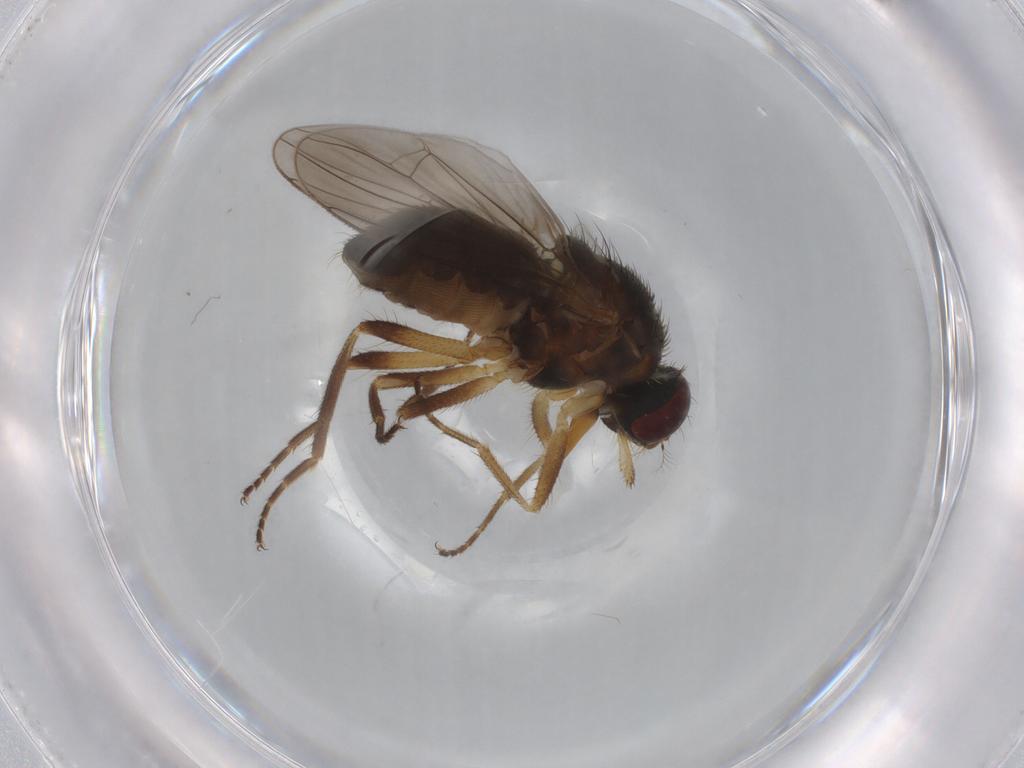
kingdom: Animalia
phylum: Arthropoda
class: Insecta
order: Diptera
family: Muscidae
